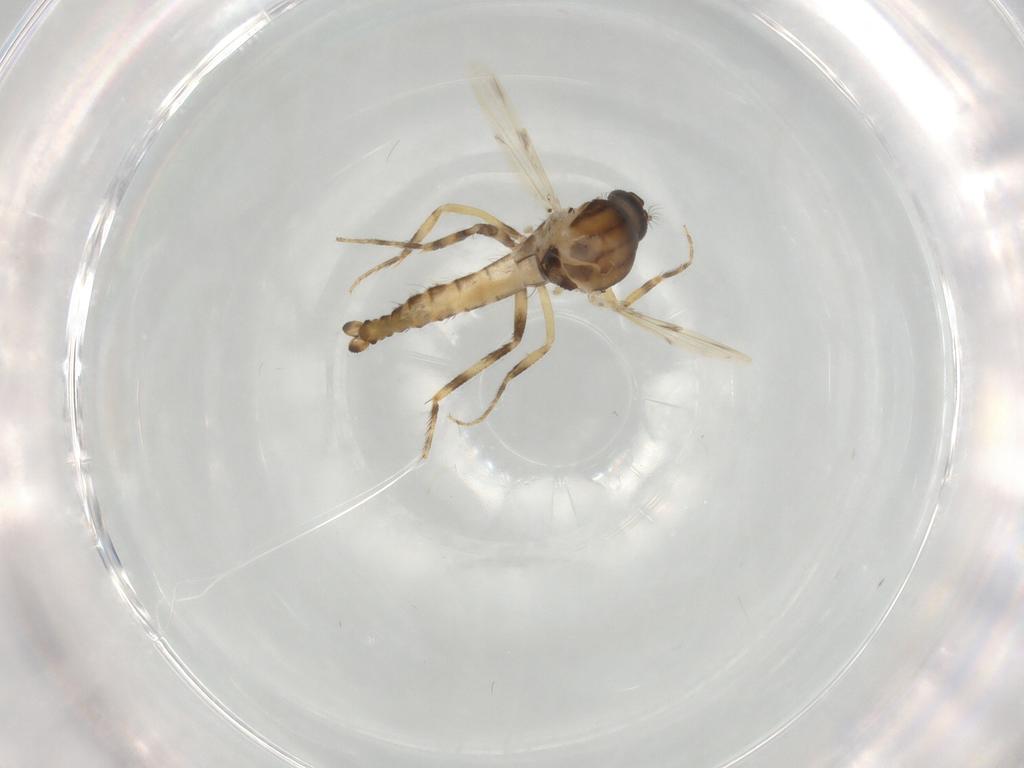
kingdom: Animalia
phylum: Arthropoda
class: Insecta
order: Diptera
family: Ceratopogonidae
